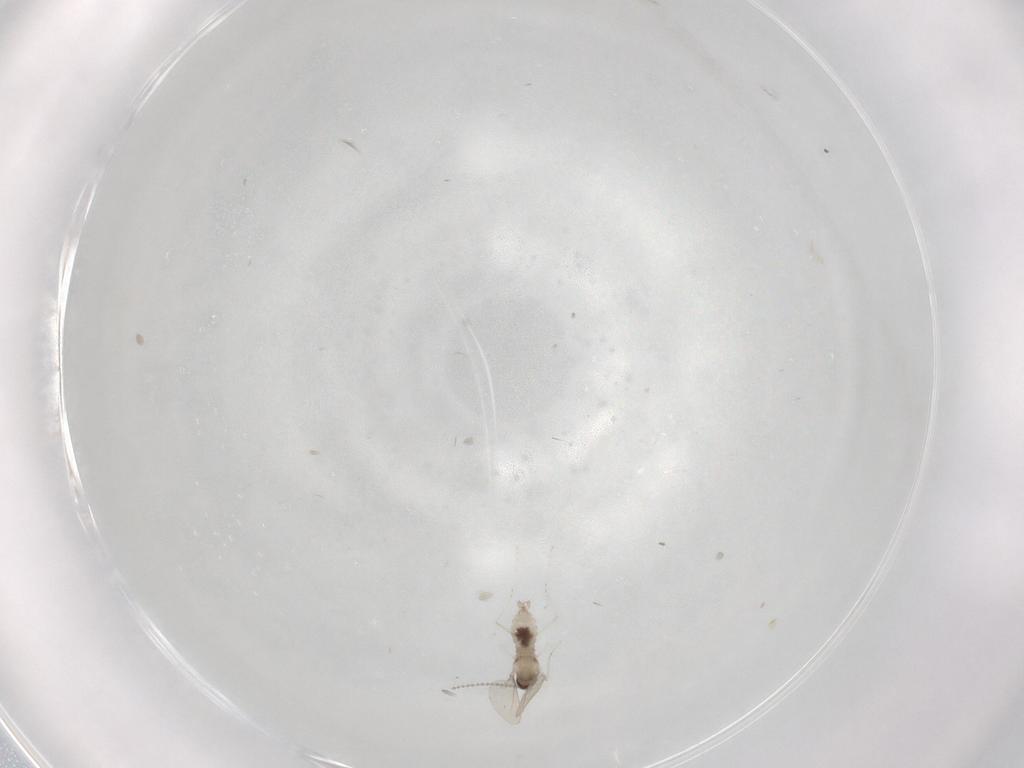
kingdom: Animalia
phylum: Arthropoda
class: Insecta
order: Diptera
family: Cecidomyiidae
